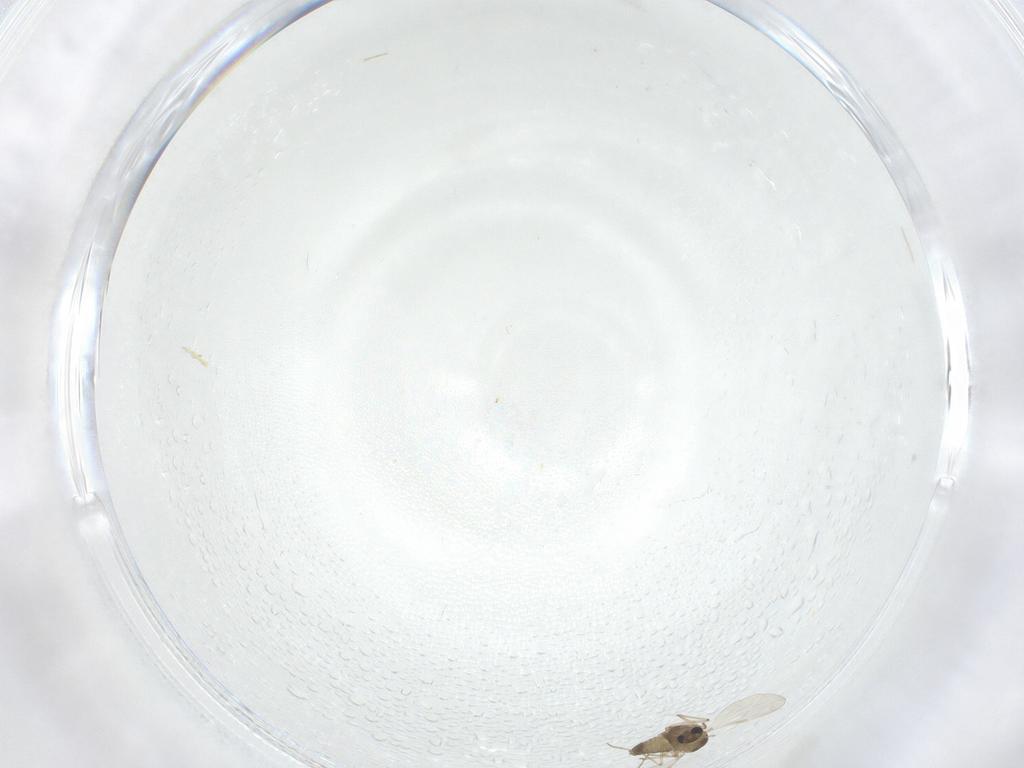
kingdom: Animalia
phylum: Arthropoda
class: Insecta
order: Diptera
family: Chironomidae
